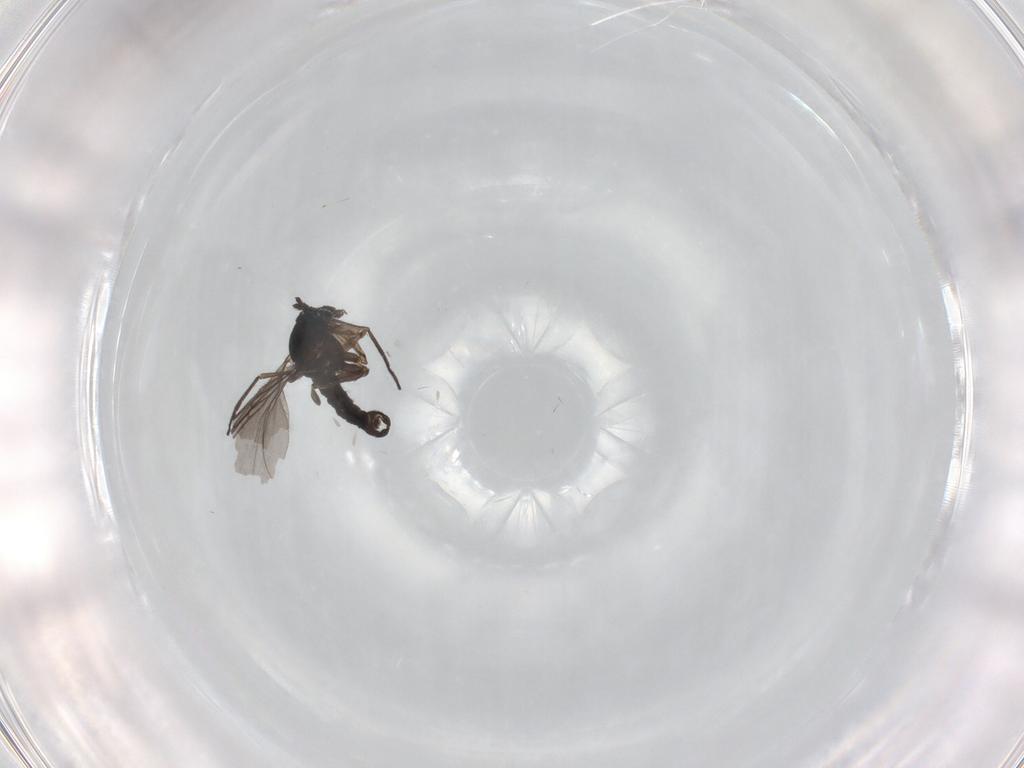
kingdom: Animalia
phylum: Arthropoda
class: Insecta
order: Diptera
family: Sciaridae
